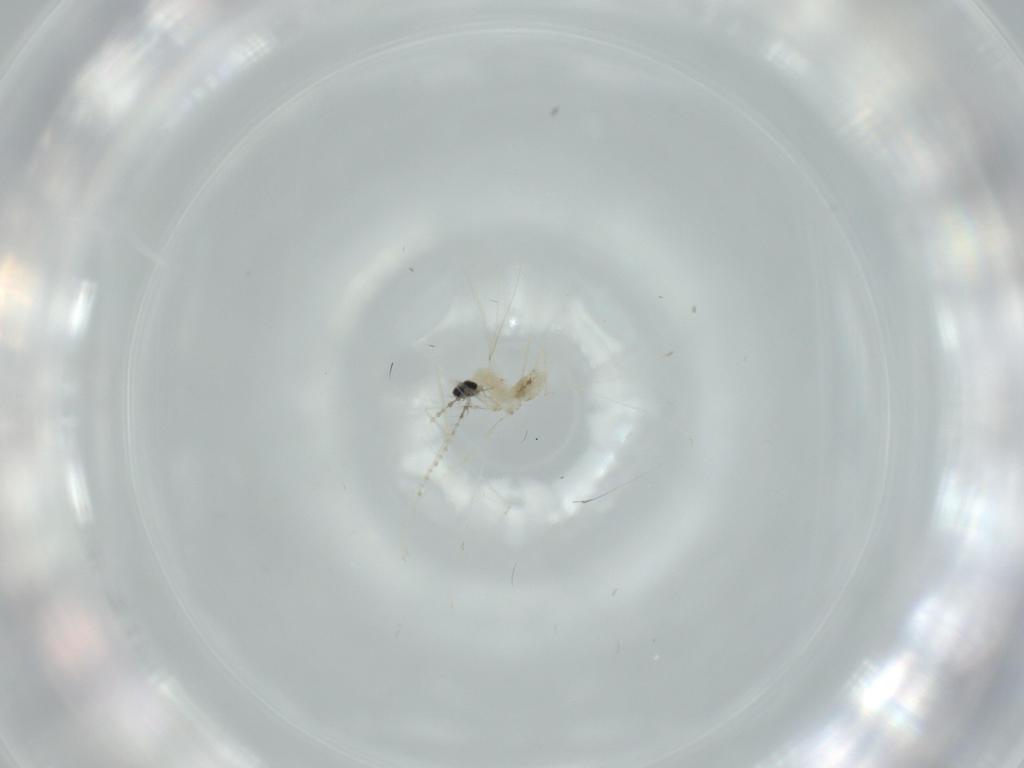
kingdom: Animalia
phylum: Arthropoda
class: Insecta
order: Diptera
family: Cecidomyiidae
